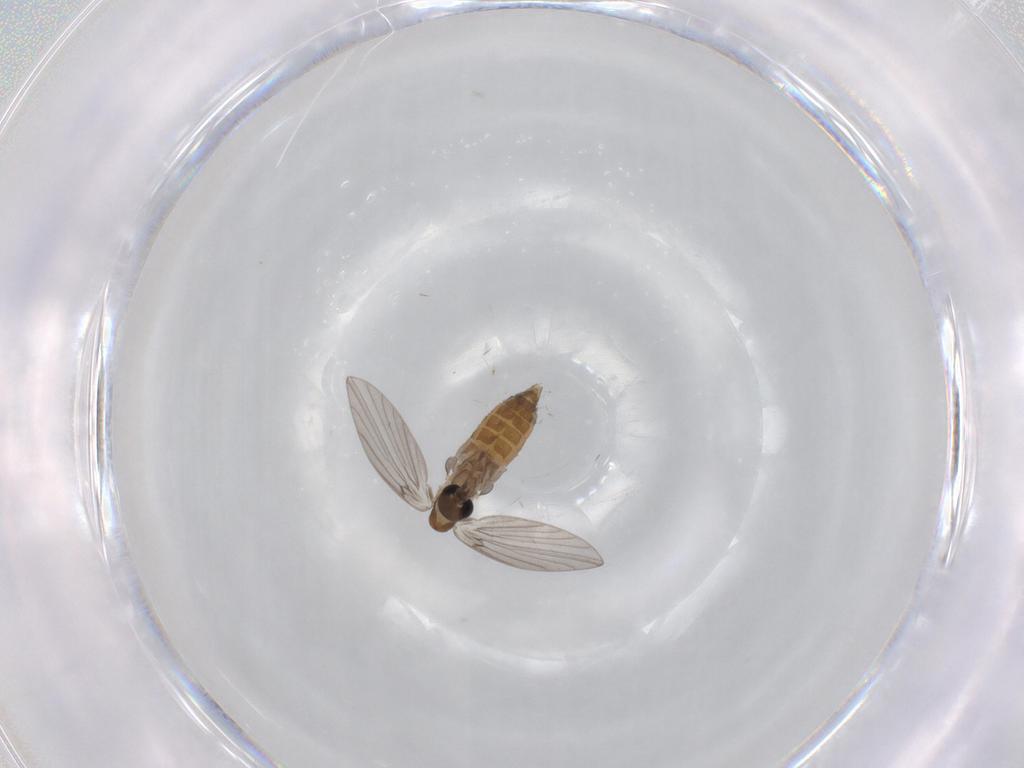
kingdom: Animalia
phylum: Arthropoda
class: Insecta
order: Diptera
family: Psychodidae
